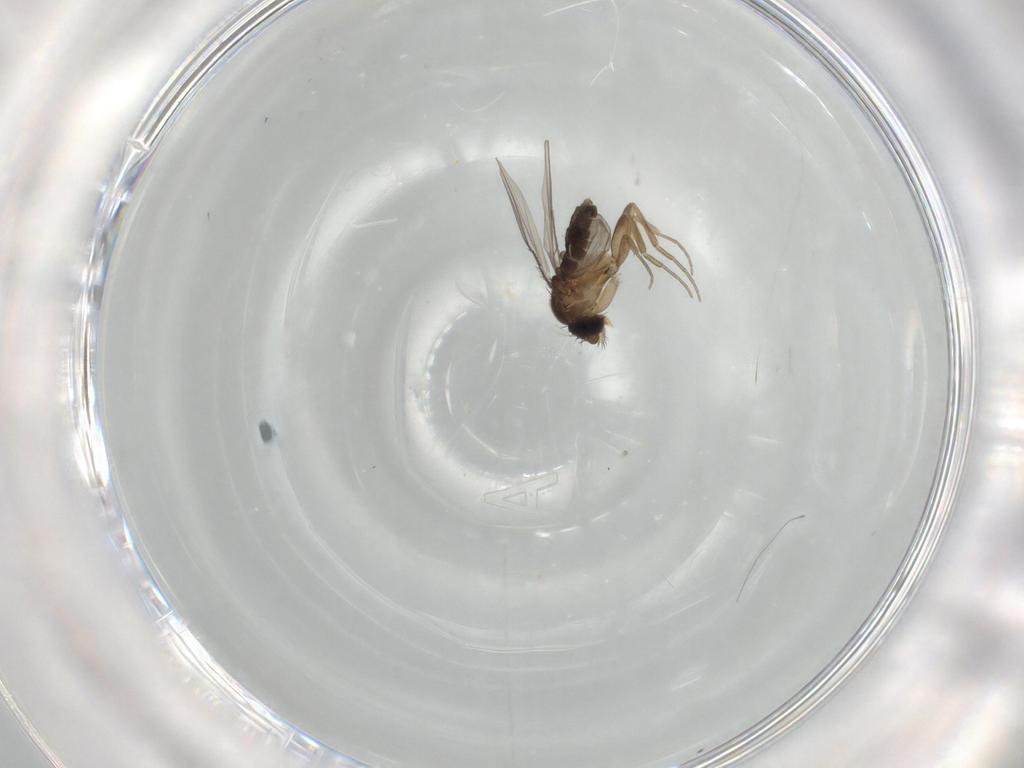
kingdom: Animalia
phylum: Arthropoda
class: Insecta
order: Diptera
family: Phoridae
